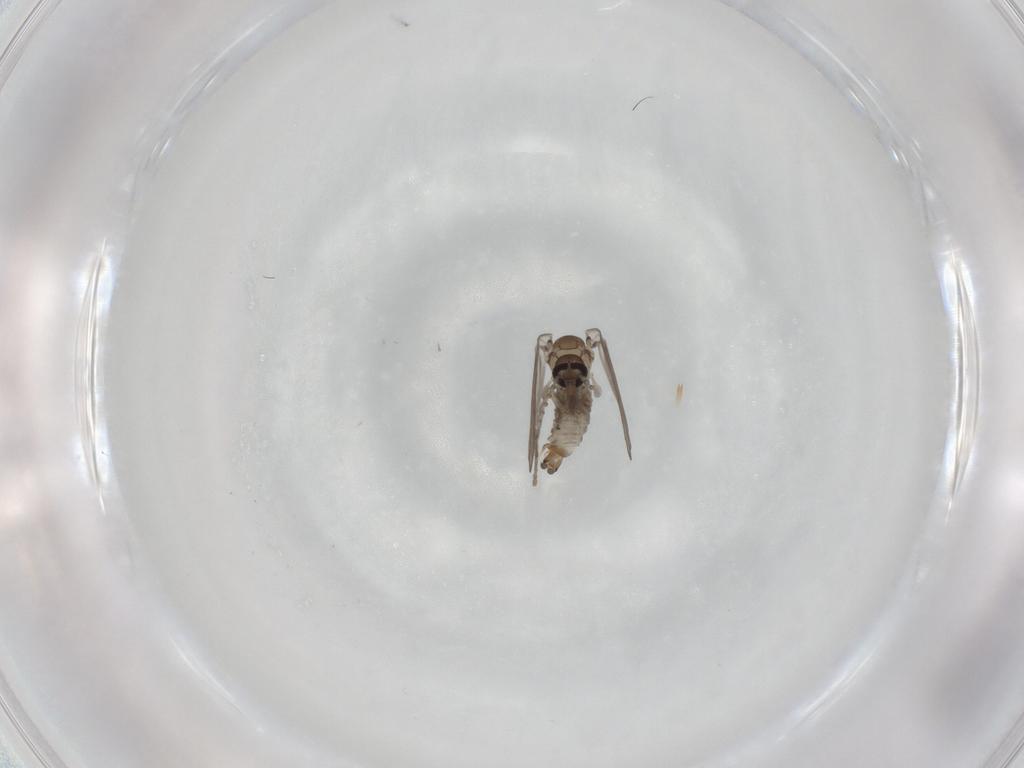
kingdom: Animalia
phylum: Arthropoda
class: Insecta
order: Diptera
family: Psychodidae
